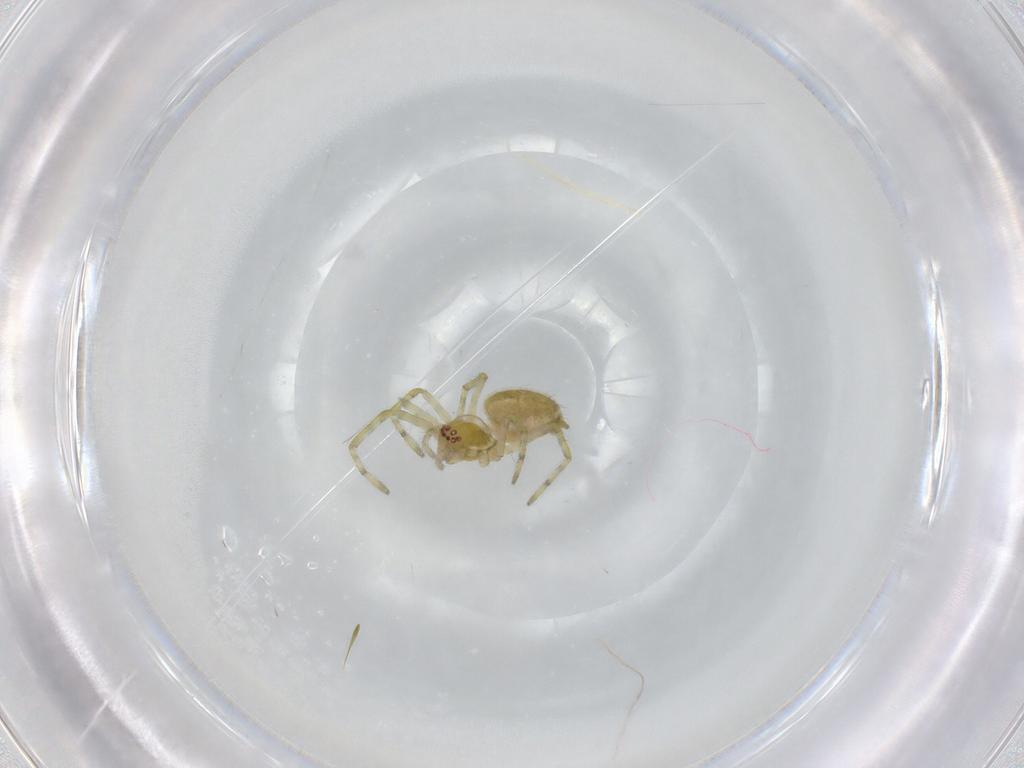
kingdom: Animalia
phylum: Arthropoda
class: Arachnida
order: Araneae
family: Dictynidae
